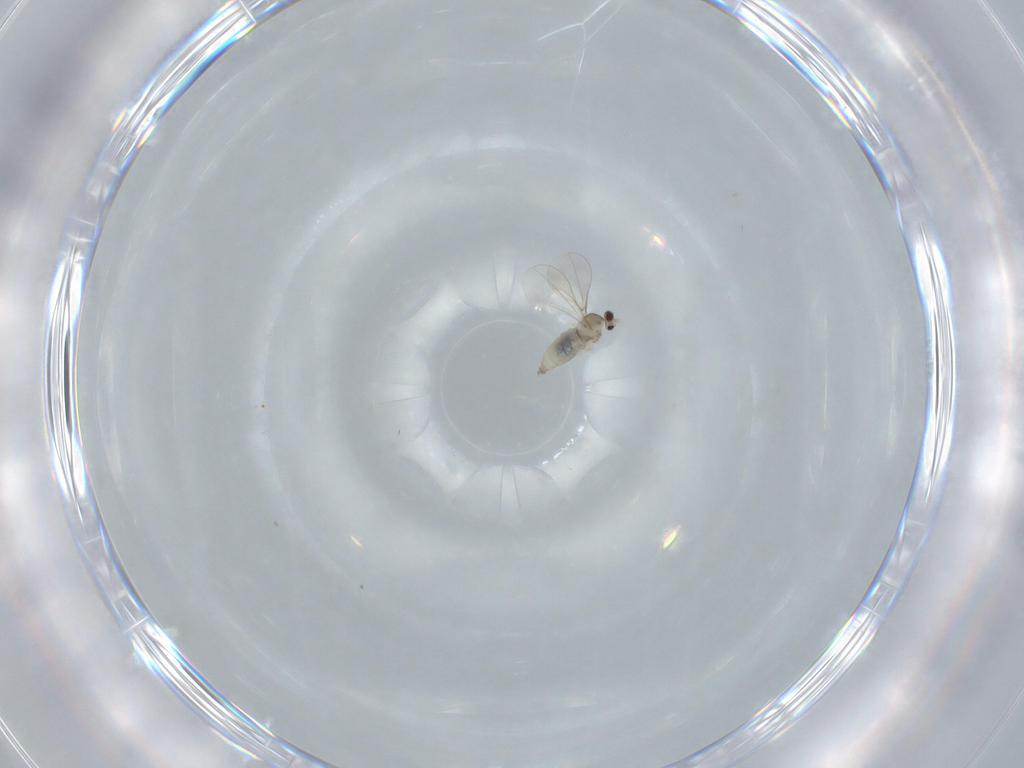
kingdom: Animalia
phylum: Arthropoda
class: Insecta
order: Diptera
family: Cecidomyiidae
